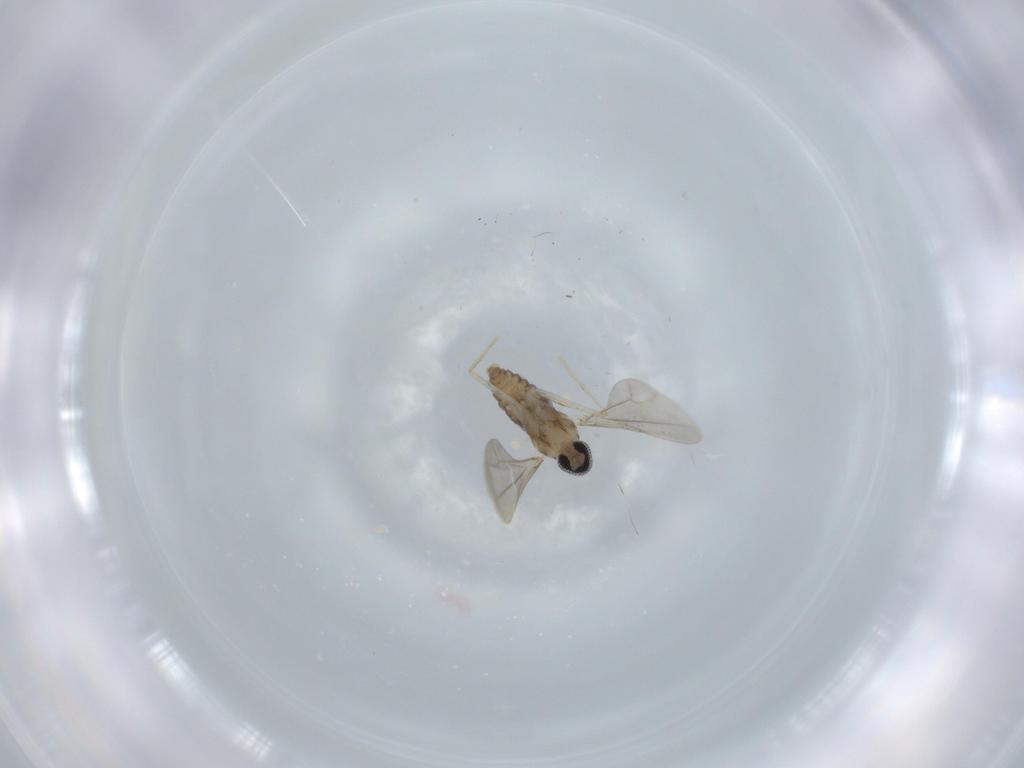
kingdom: Animalia
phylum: Arthropoda
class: Insecta
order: Diptera
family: Cecidomyiidae
